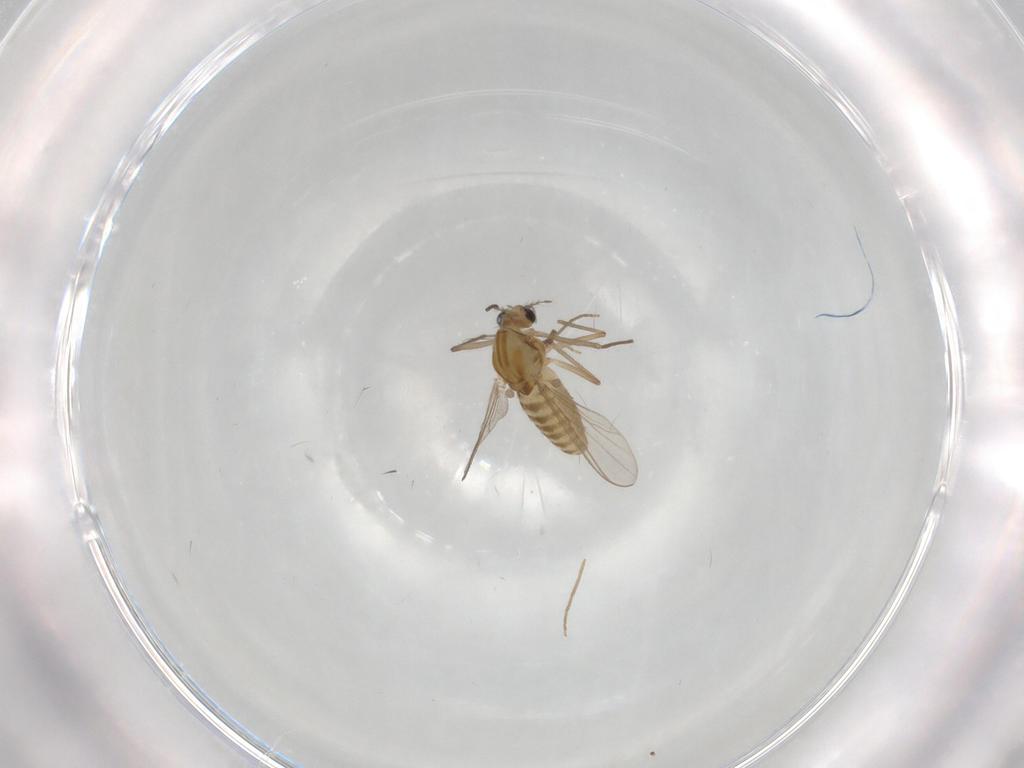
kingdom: Animalia
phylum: Arthropoda
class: Insecta
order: Diptera
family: Chironomidae
